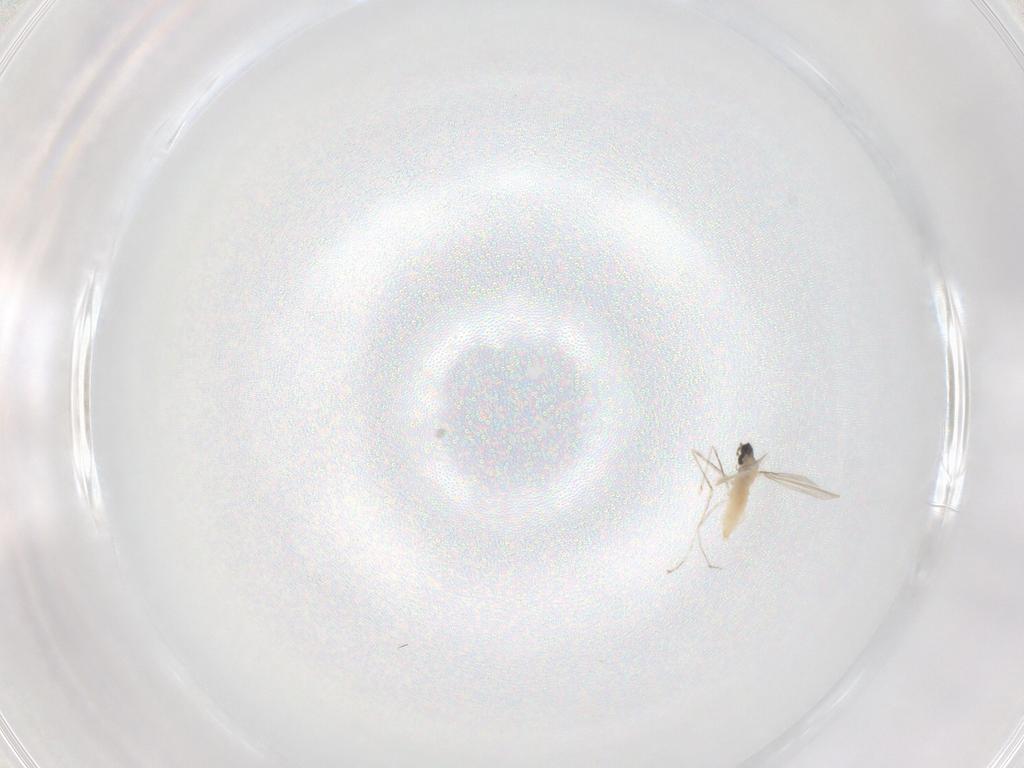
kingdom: Animalia
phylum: Arthropoda
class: Insecta
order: Diptera
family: Phoridae
